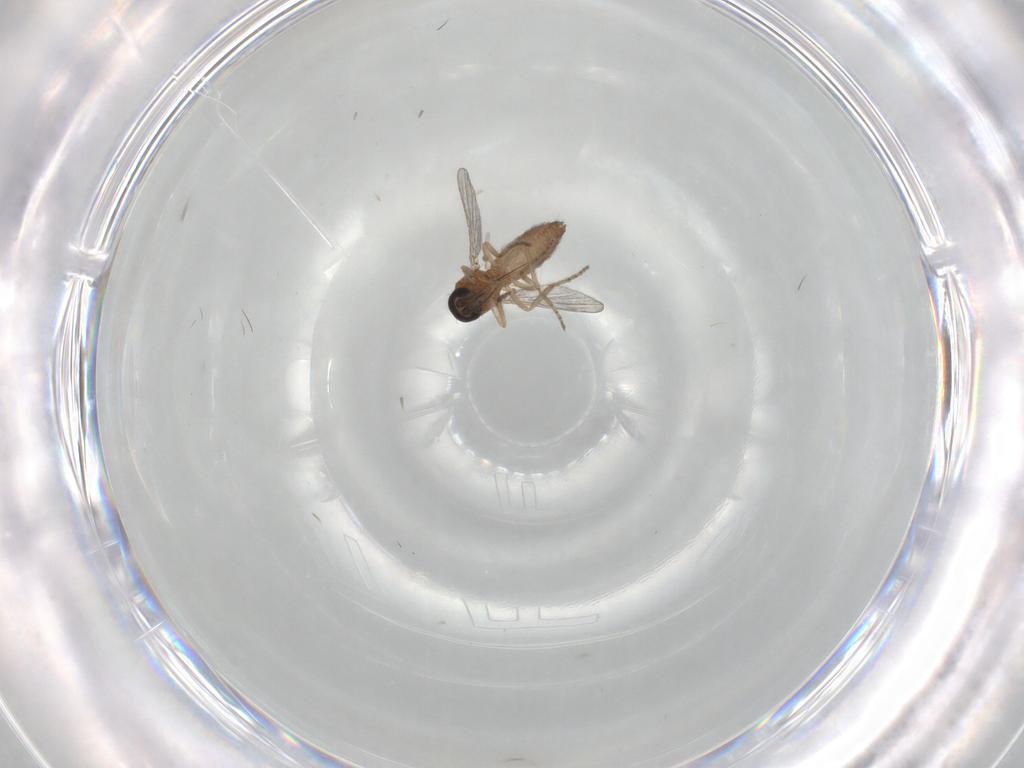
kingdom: Animalia
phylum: Arthropoda
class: Insecta
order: Diptera
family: Ceratopogonidae
